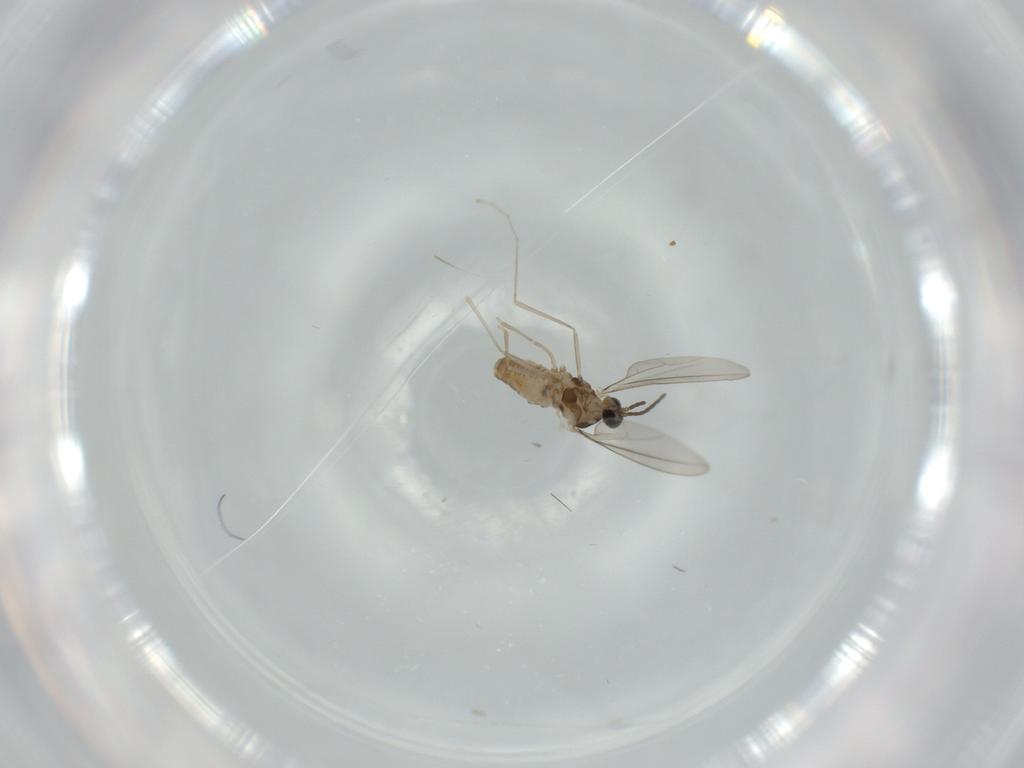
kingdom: Animalia
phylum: Arthropoda
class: Insecta
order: Diptera
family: Phoridae
